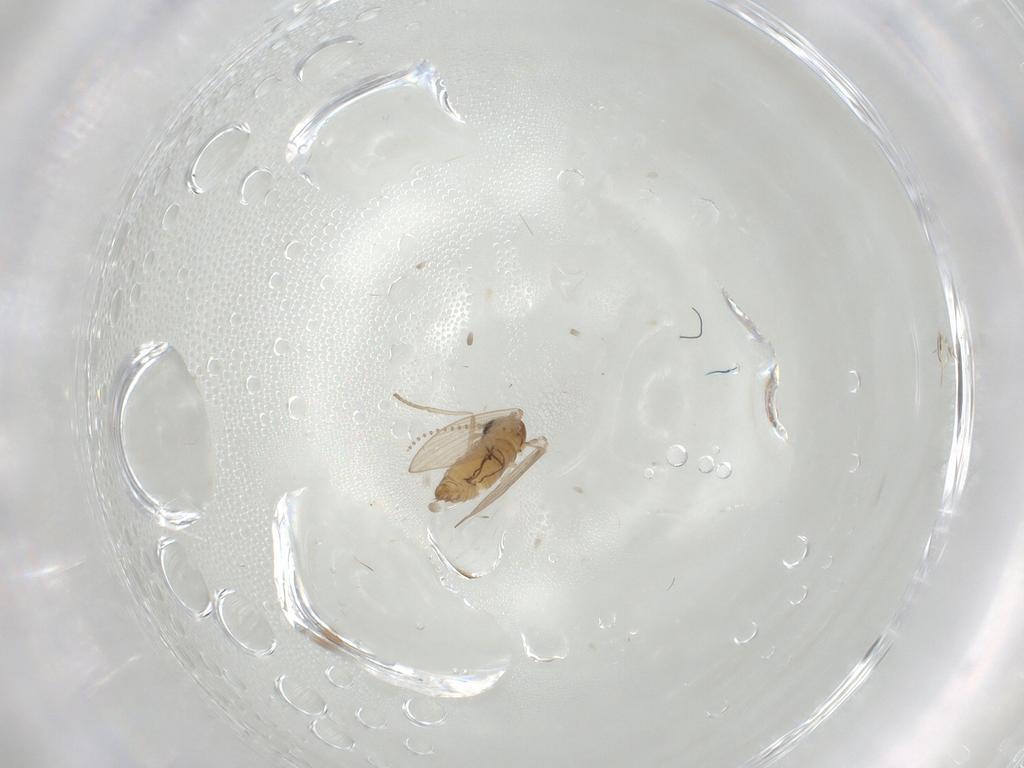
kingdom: Animalia
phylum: Arthropoda
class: Insecta
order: Diptera
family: Psychodidae
